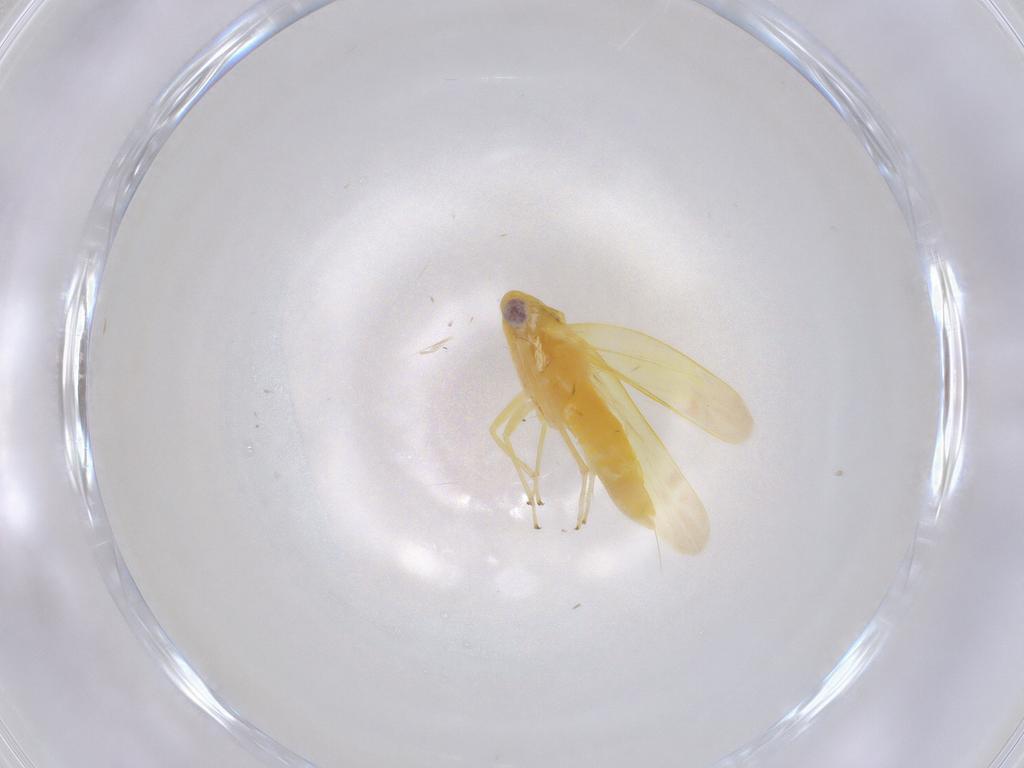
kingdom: Animalia
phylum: Arthropoda
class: Insecta
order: Hemiptera
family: Cicadellidae
